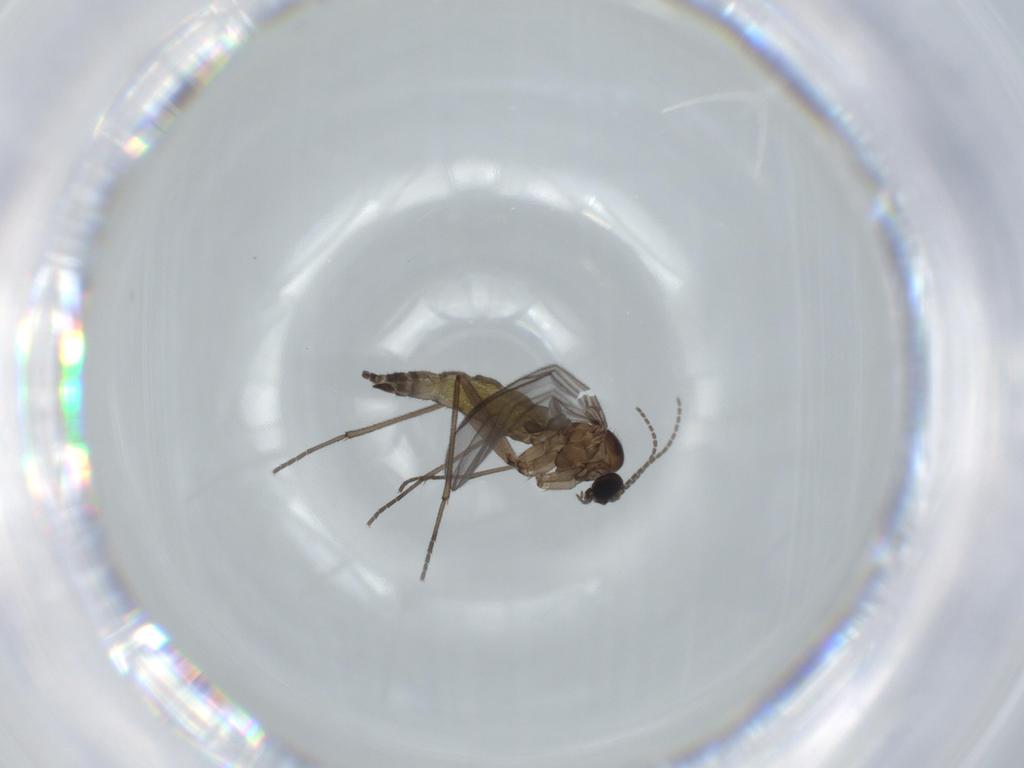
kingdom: Animalia
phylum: Arthropoda
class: Insecta
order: Diptera
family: Sciaridae
